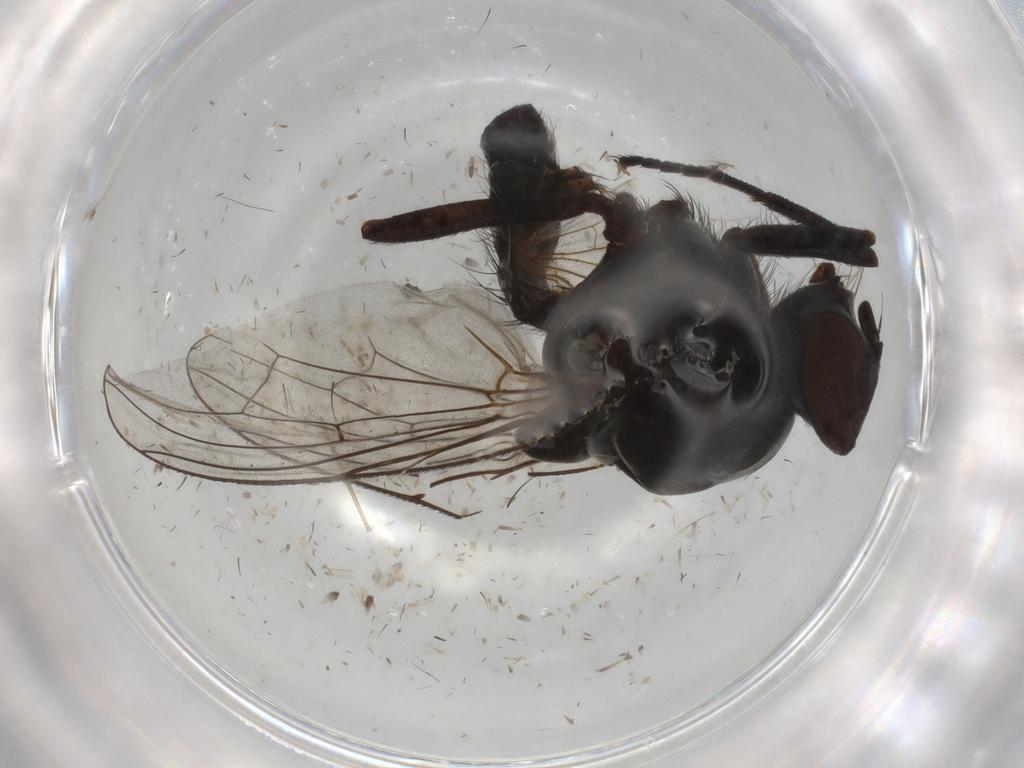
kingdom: Animalia
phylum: Arthropoda
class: Insecta
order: Diptera
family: Anthomyiidae
